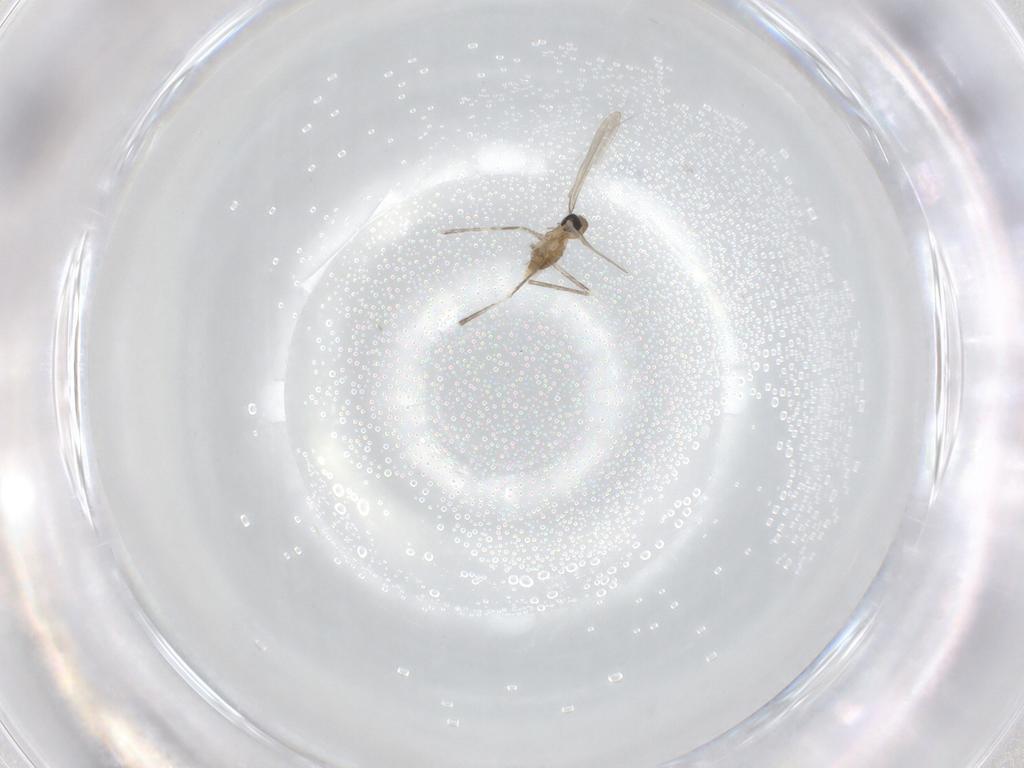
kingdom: Animalia
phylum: Arthropoda
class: Insecta
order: Diptera
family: Cecidomyiidae
